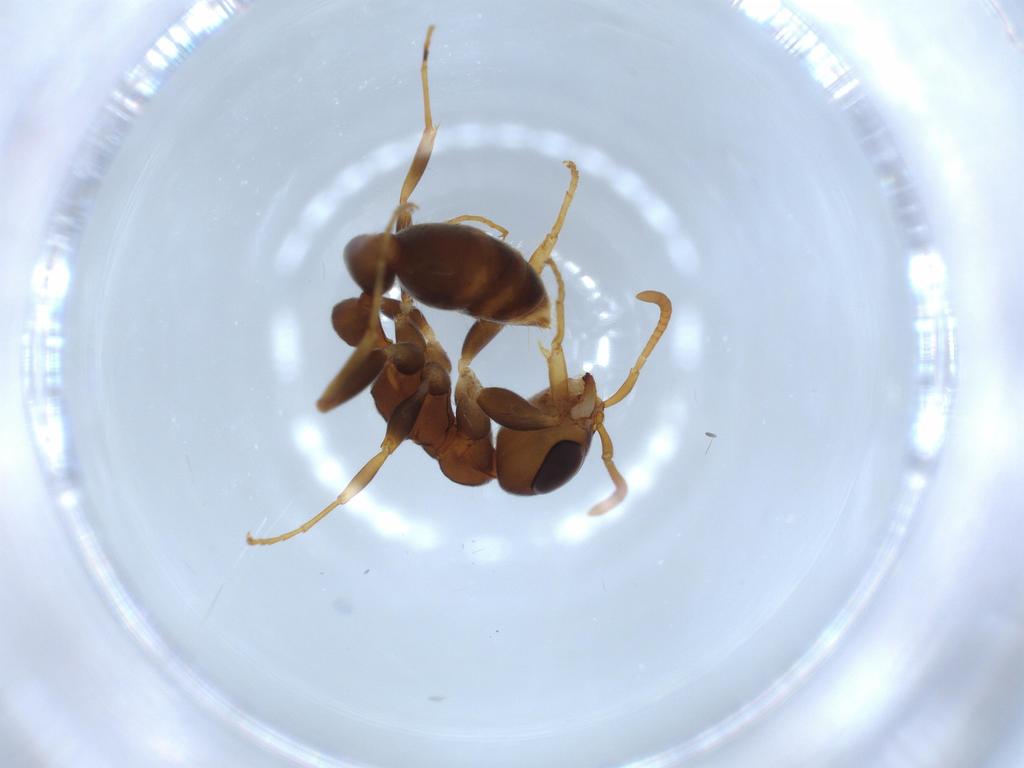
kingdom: Animalia
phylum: Arthropoda
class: Insecta
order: Hymenoptera
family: Formicidae
